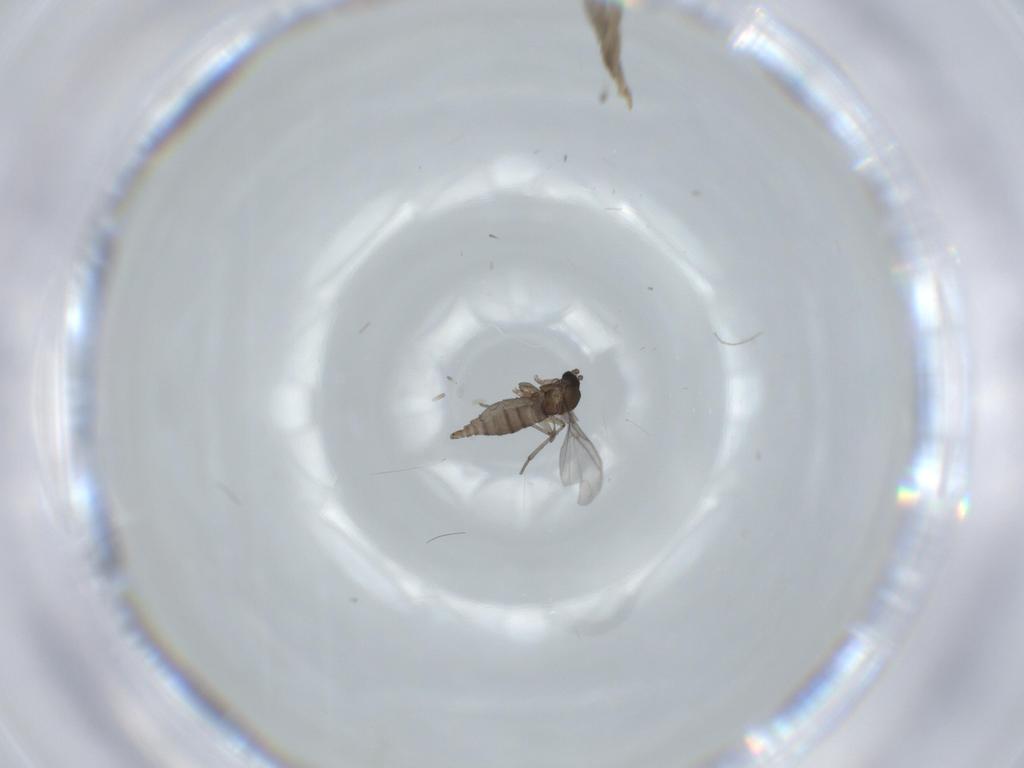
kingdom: Animalia
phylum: Arthropoda
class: Insecta
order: Diptera
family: Sciaridae
